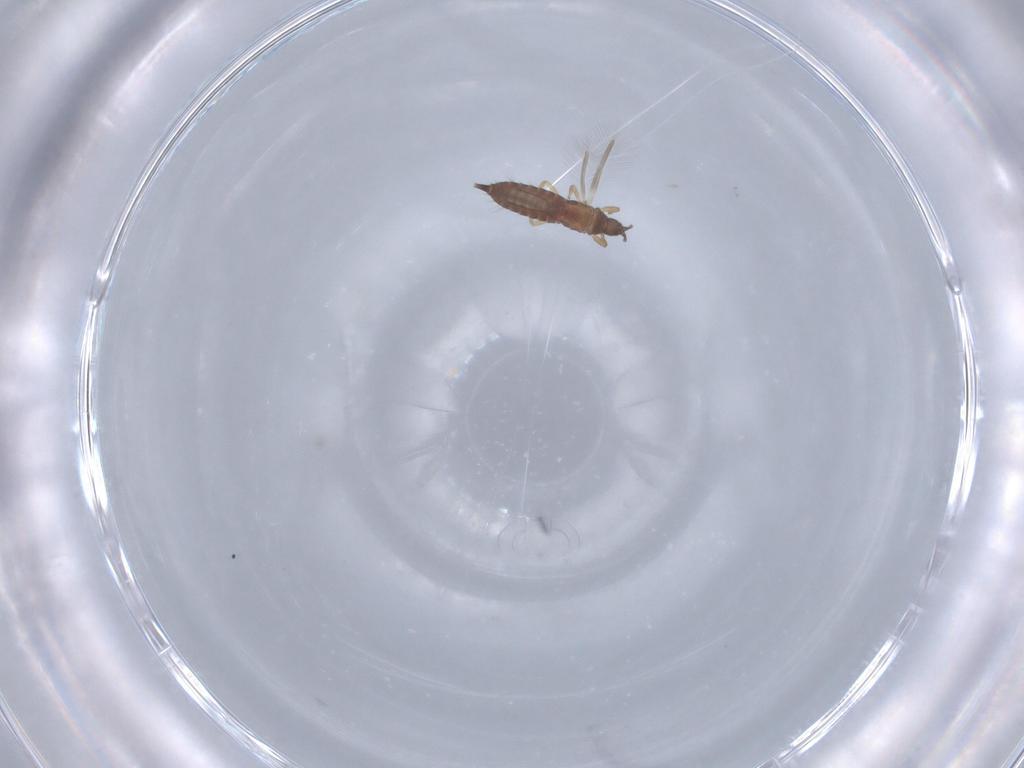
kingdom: Animalia
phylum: Arthropoda
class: Insecta
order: Thysanoptera
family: Phlaeothripidae
